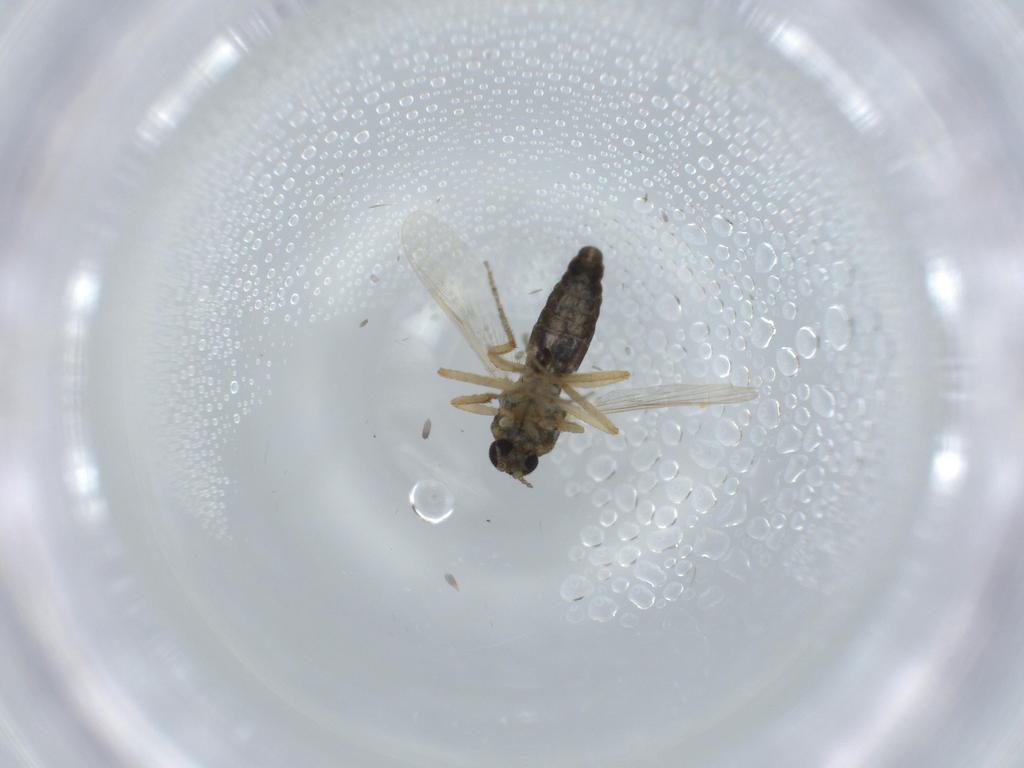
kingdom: Animalia
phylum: Arthropoda
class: Insecta
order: Diptera
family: Ceratopogonidae
